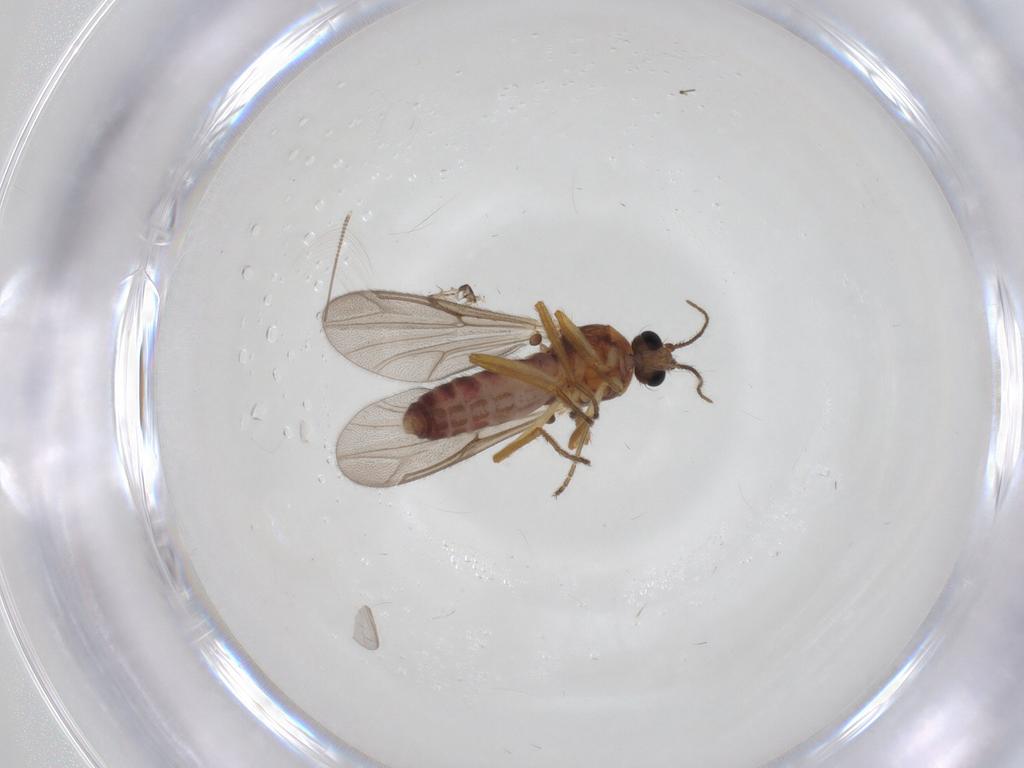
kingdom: Animalia
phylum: Arthropoda
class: Insecta
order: Diptera
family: Ceratopogonidae
